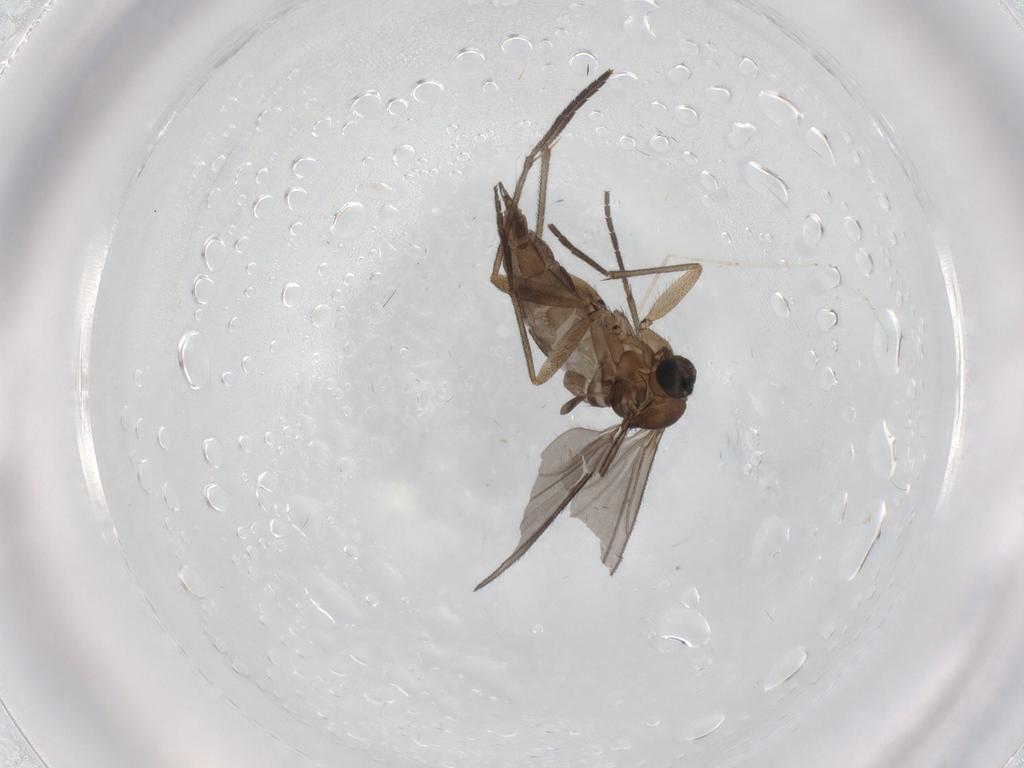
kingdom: Animalia
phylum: Arthropoda
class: Insecta
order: Diptera
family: Sciaridae
